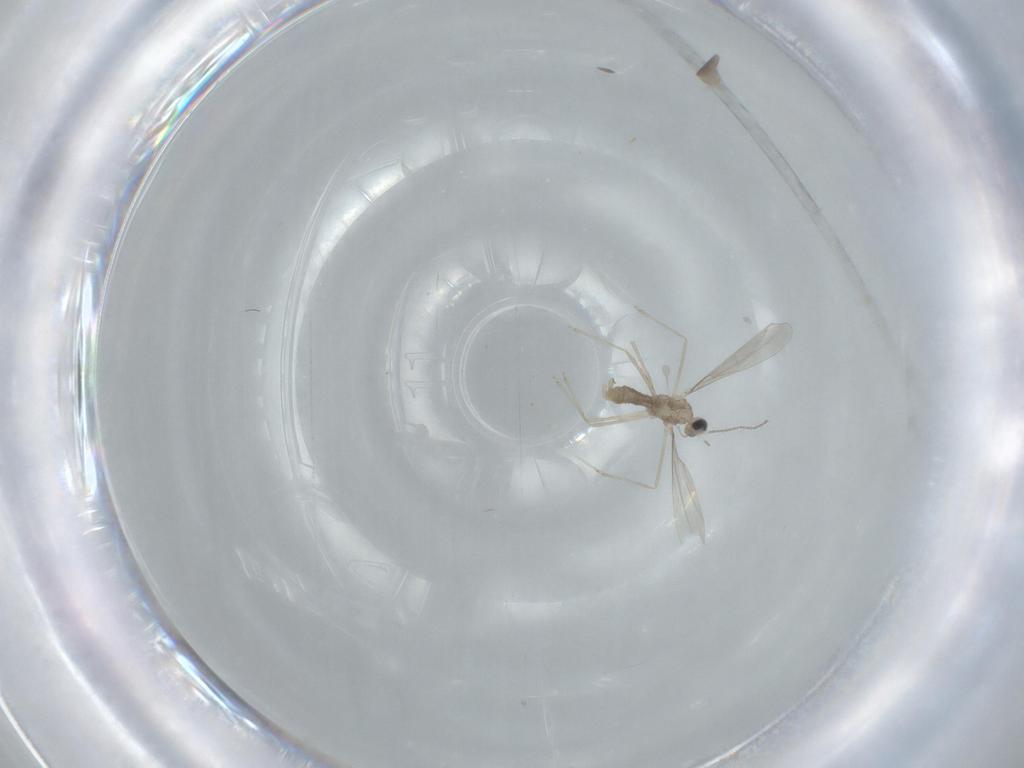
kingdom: Animalia
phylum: Arthropoda
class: Insecta
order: Diptera
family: Cecidomyiidae
